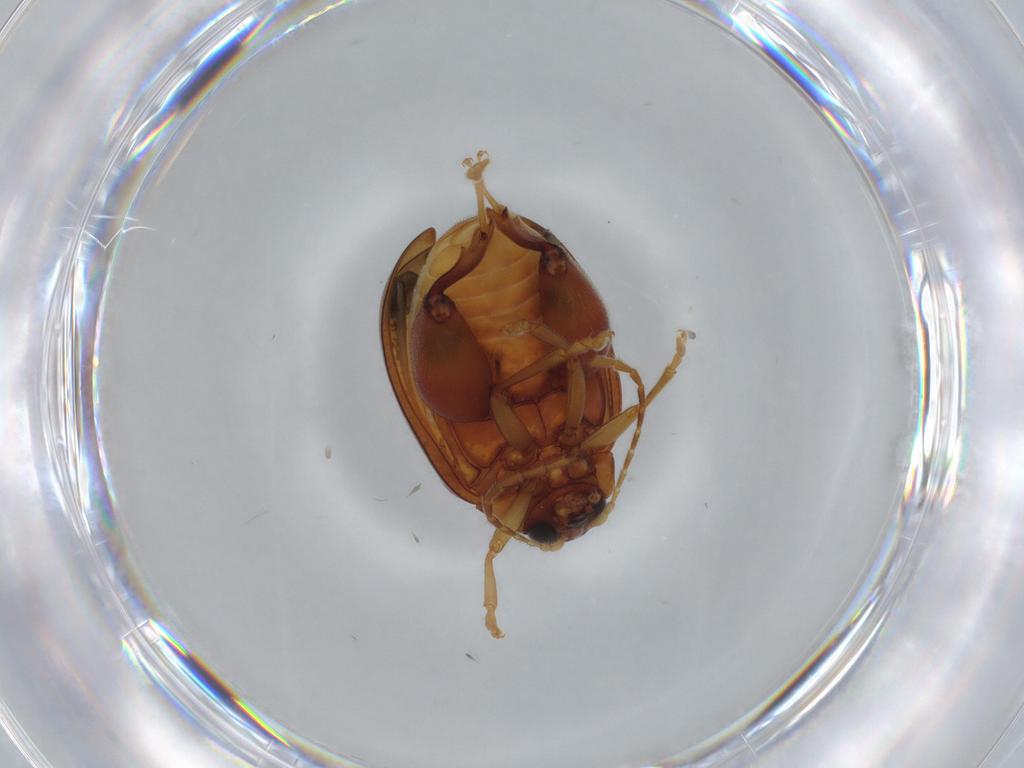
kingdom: Animalia
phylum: Arthropoda
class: Insecta
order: Coleoptera
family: Chrysomelidae
